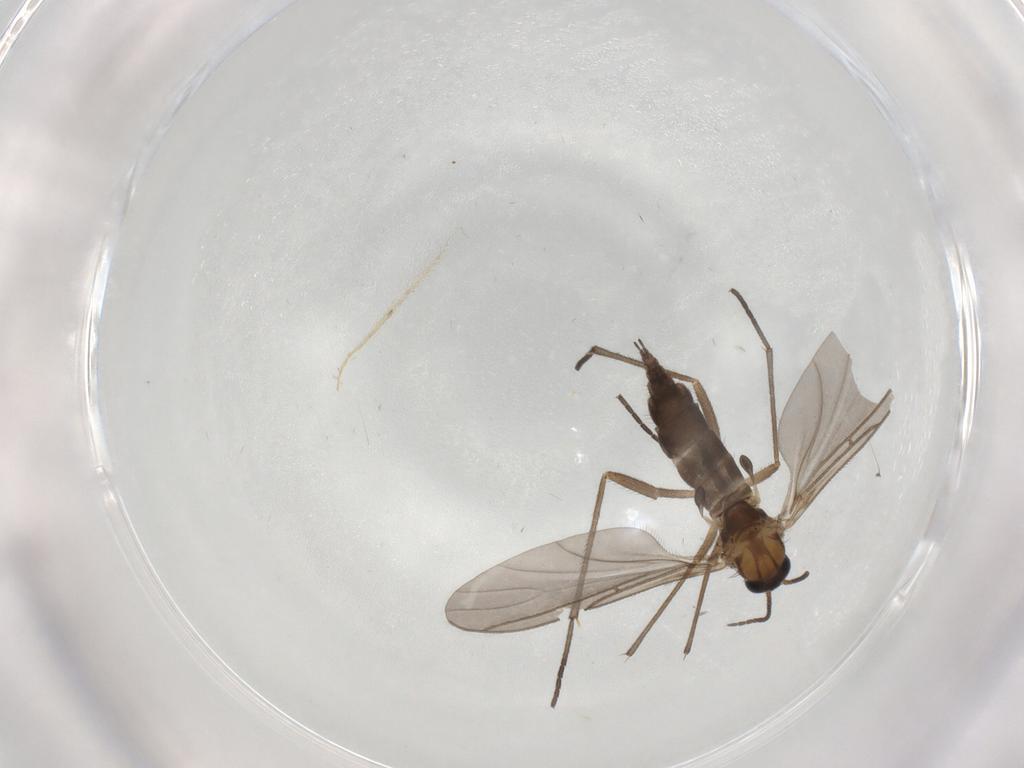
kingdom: Animalia
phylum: Arthropoda
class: Insecta
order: Diptera
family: Sciaridae
